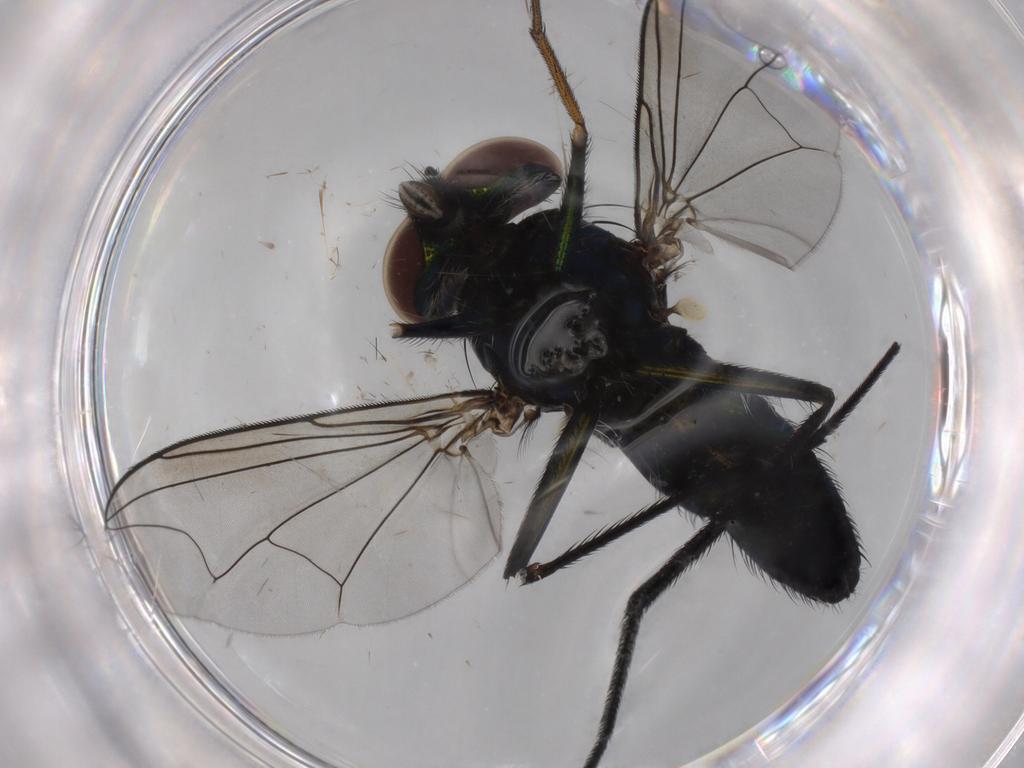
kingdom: Animalia
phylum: Arthropoda
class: Insecta
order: Diptera
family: Dolichopodidae
